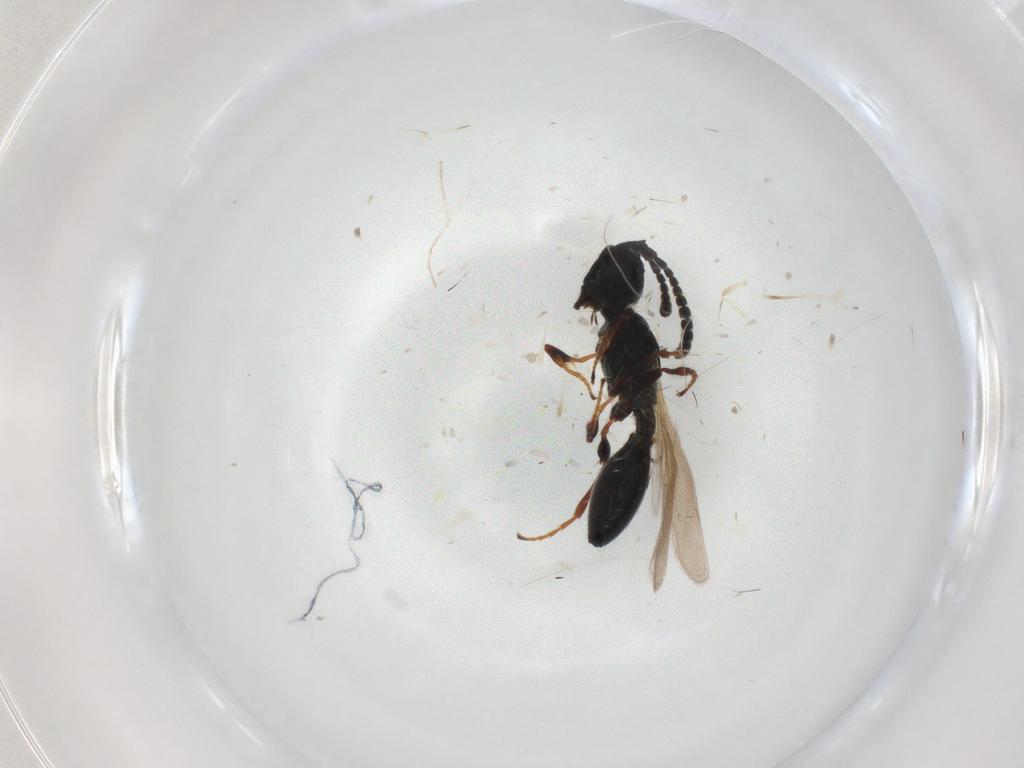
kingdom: Animalia
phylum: Arthropoda
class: Insecta
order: Hymenoptera
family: Diapriidae
